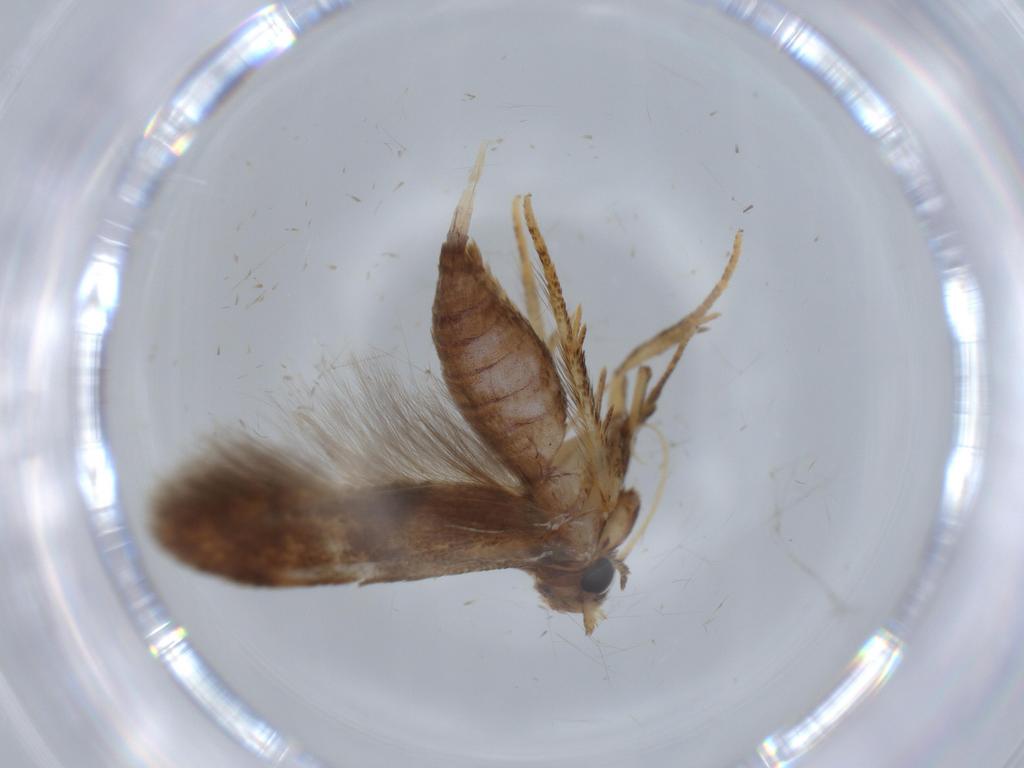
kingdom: Animalia
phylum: Arthropoda
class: Insecta
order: Lepidoptera
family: Blastobasidae
